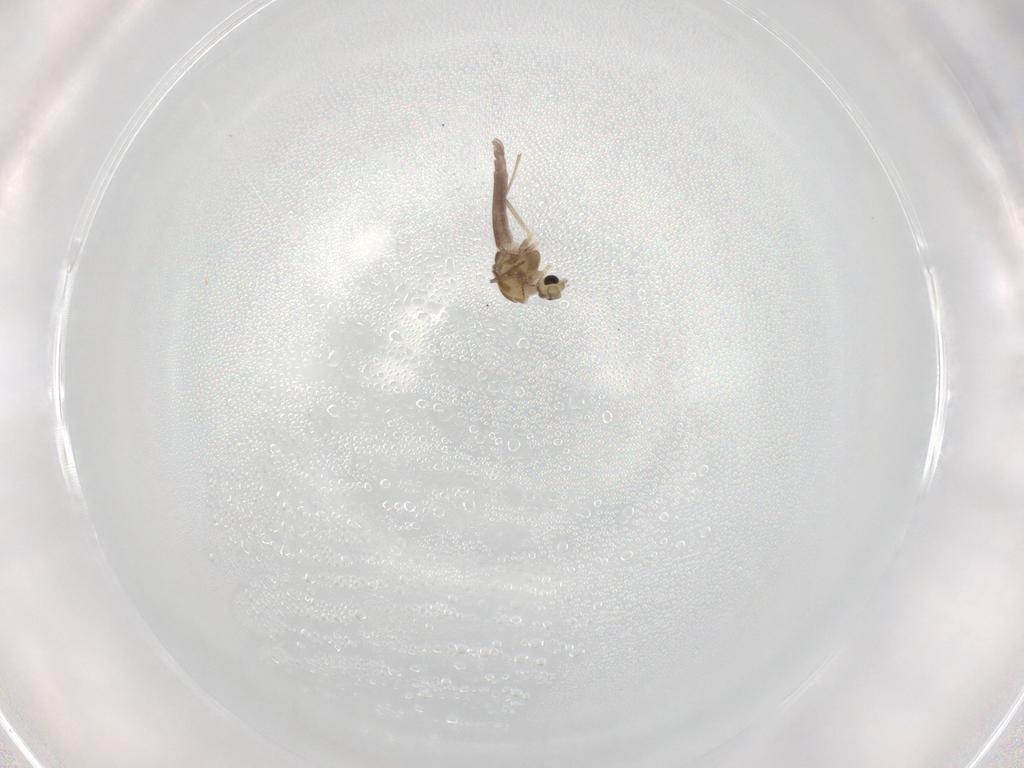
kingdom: Animalia
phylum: Arthropoda
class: Insecta
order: Diptera
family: Chironomidae
